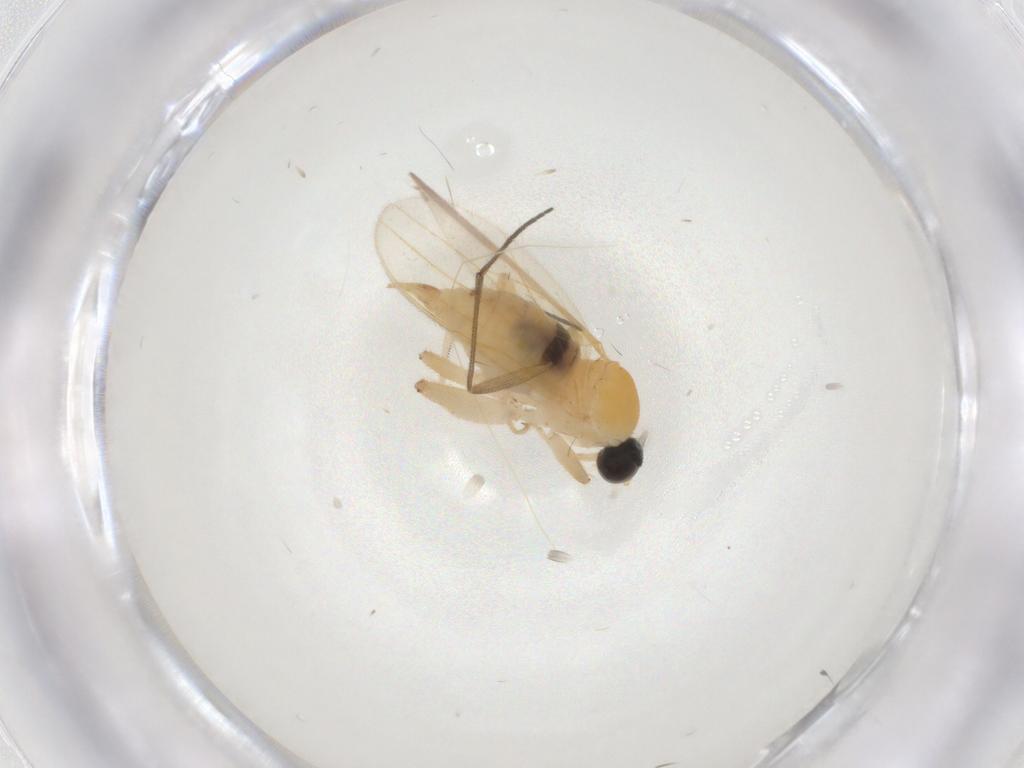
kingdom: Animalia
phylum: Arthropoda
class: Insecta
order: Diptera
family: Hybotidae
